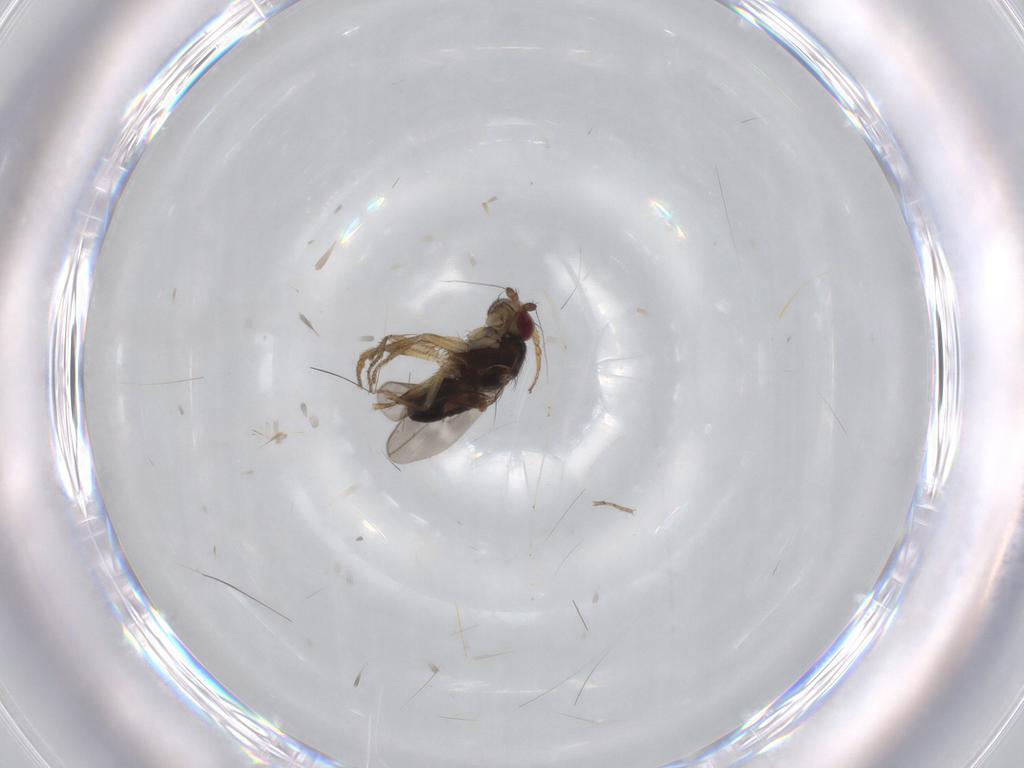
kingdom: Animalia
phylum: Arthropoda
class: Insecta
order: Diptera
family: Sphaeroceridae
